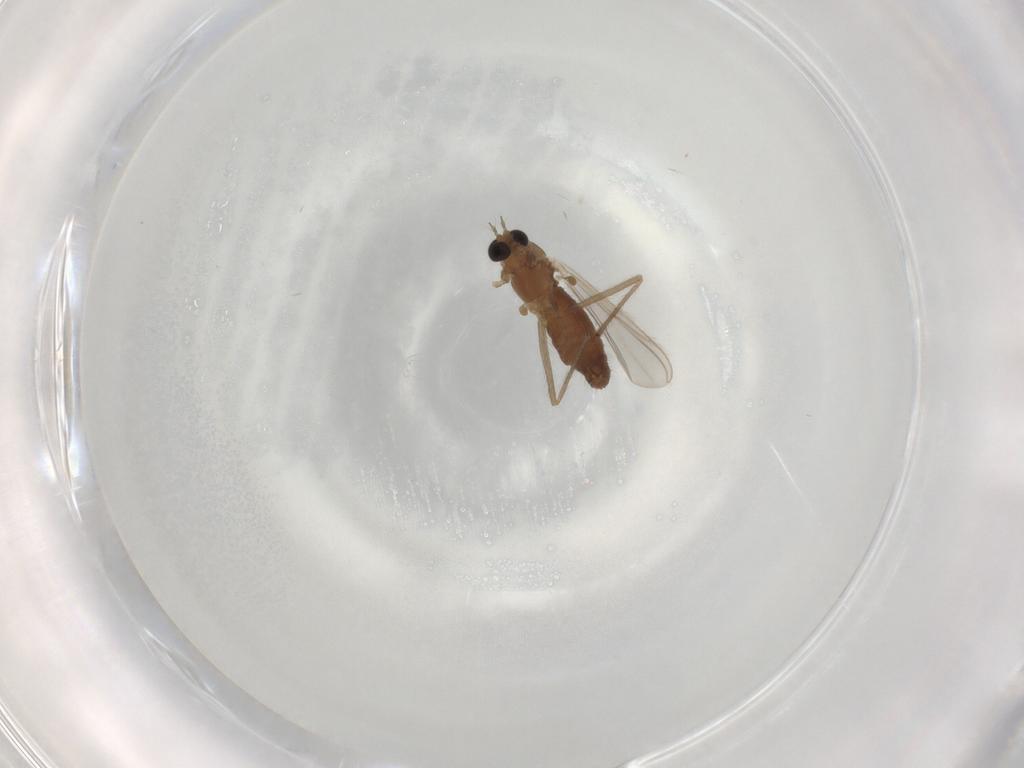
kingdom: Animalia
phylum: Arthropoda
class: Insecta
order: Diptera
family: Chironomidae
